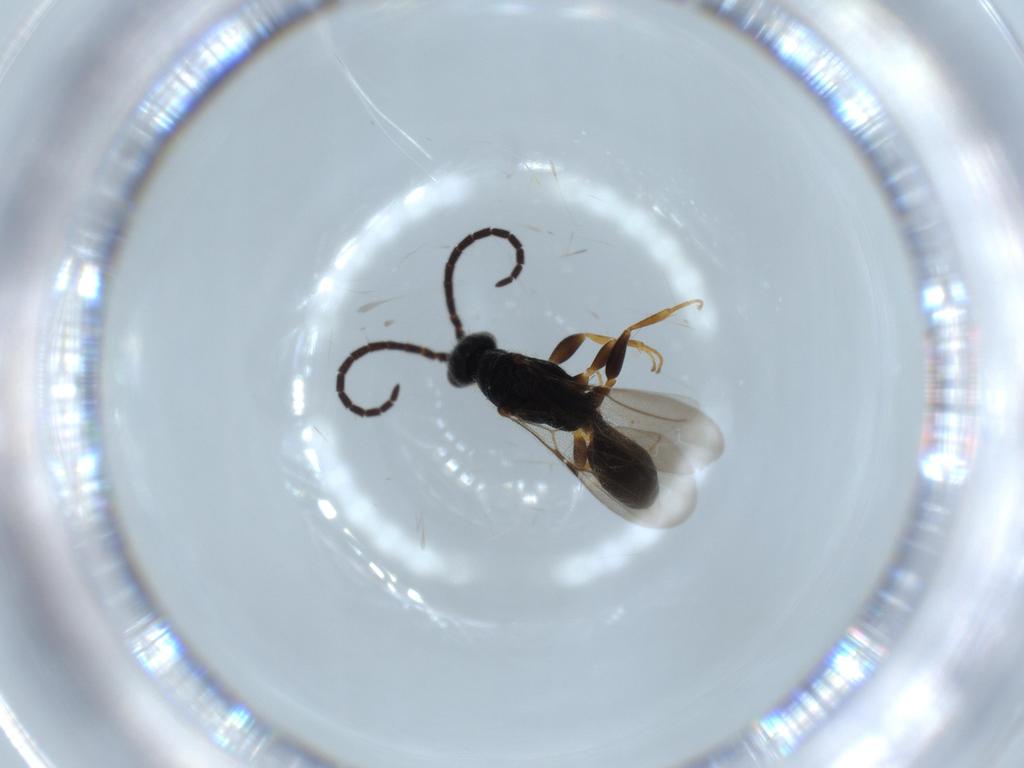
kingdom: Animalia
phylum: Arthropoda
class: Insecta
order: Hymenoptera
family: Bethylidae
